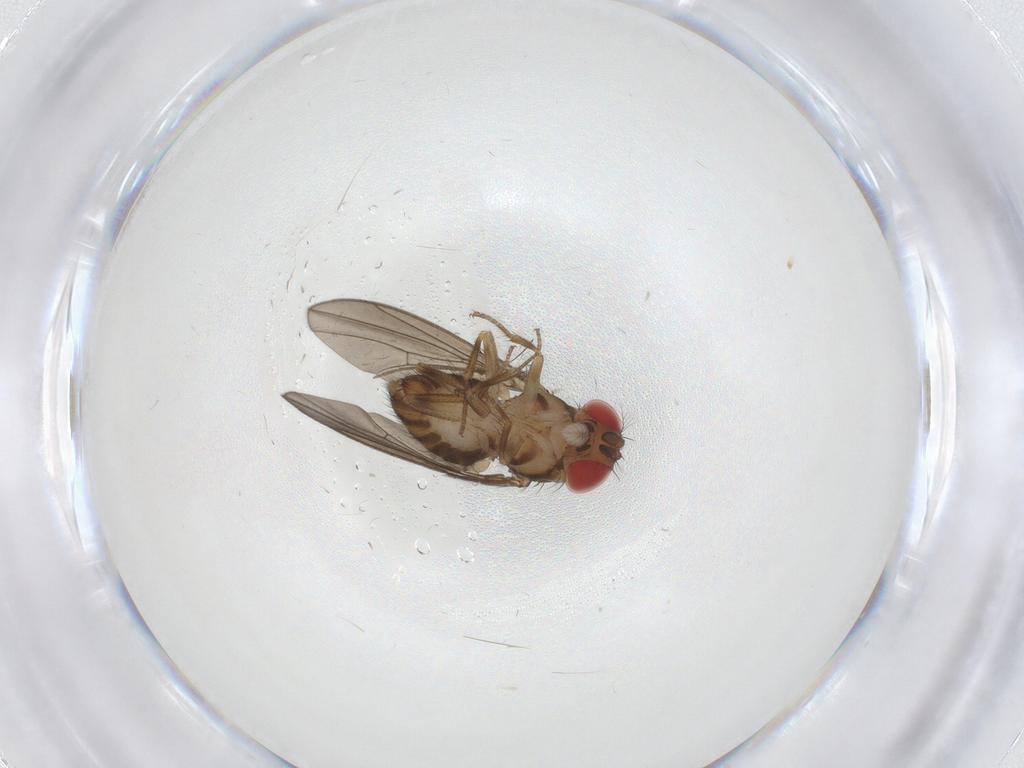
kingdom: Animalia
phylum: Arthropoda
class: Insecta
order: Diptera
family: Drosophilidae
